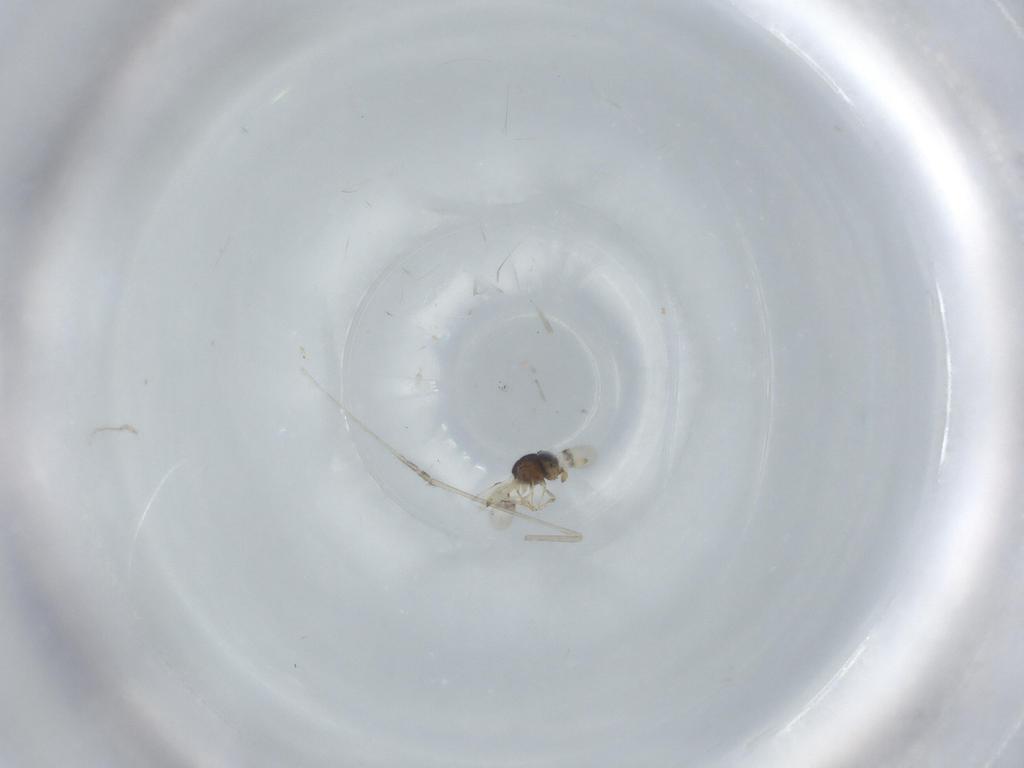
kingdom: Animalia
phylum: Arthropoda
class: Insecta
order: Hymenoptera
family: Scelionidae
